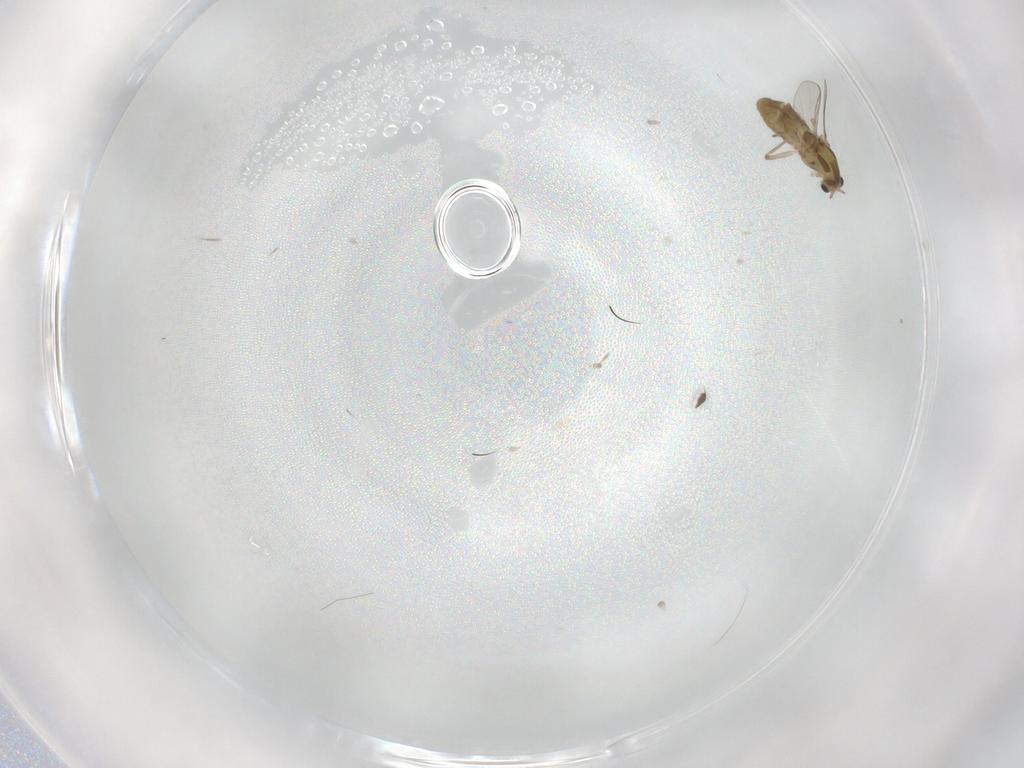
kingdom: Animalia
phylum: Arthropoda
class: Insecta
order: Diptera
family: Chironomidae
